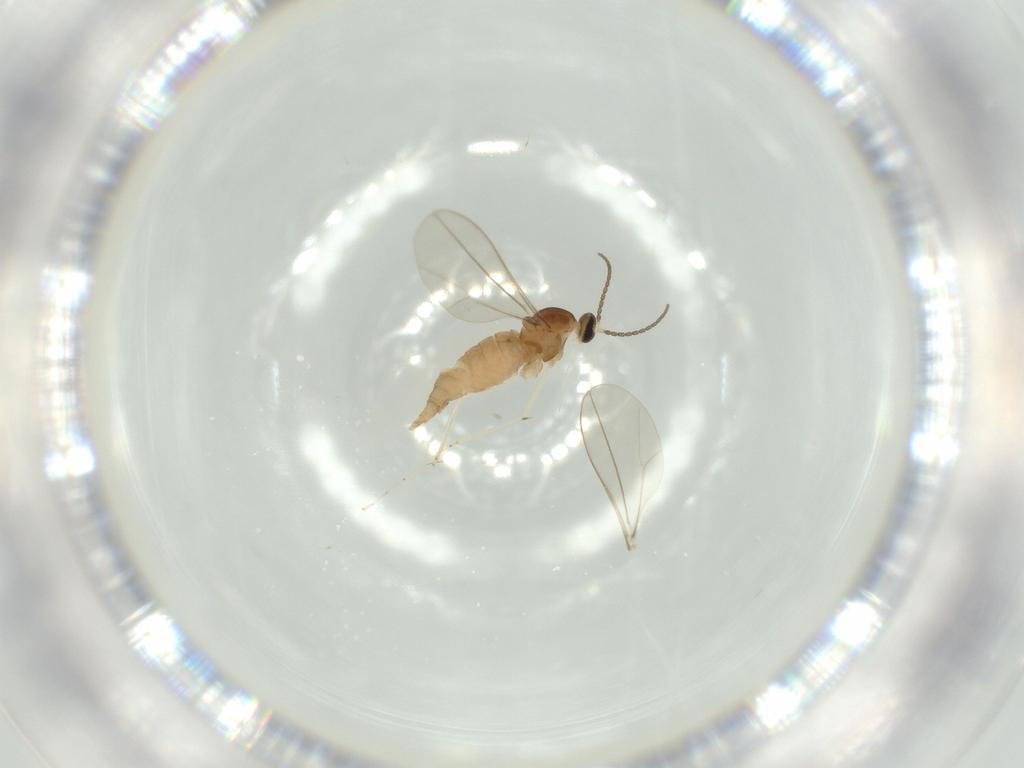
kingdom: Animalia
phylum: Arthropoda
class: Insecta
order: Diptera
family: Cecidomyiidae
